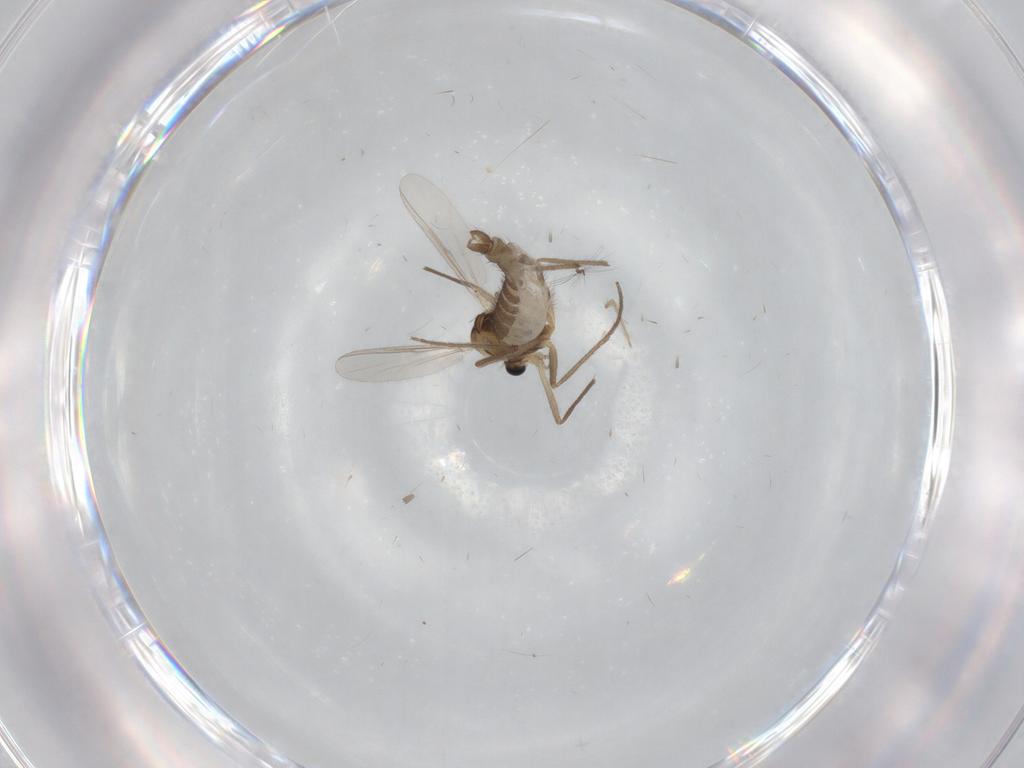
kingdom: Animalia
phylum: Arthropoda
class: Insecta
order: Diptera
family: Chironomidae
